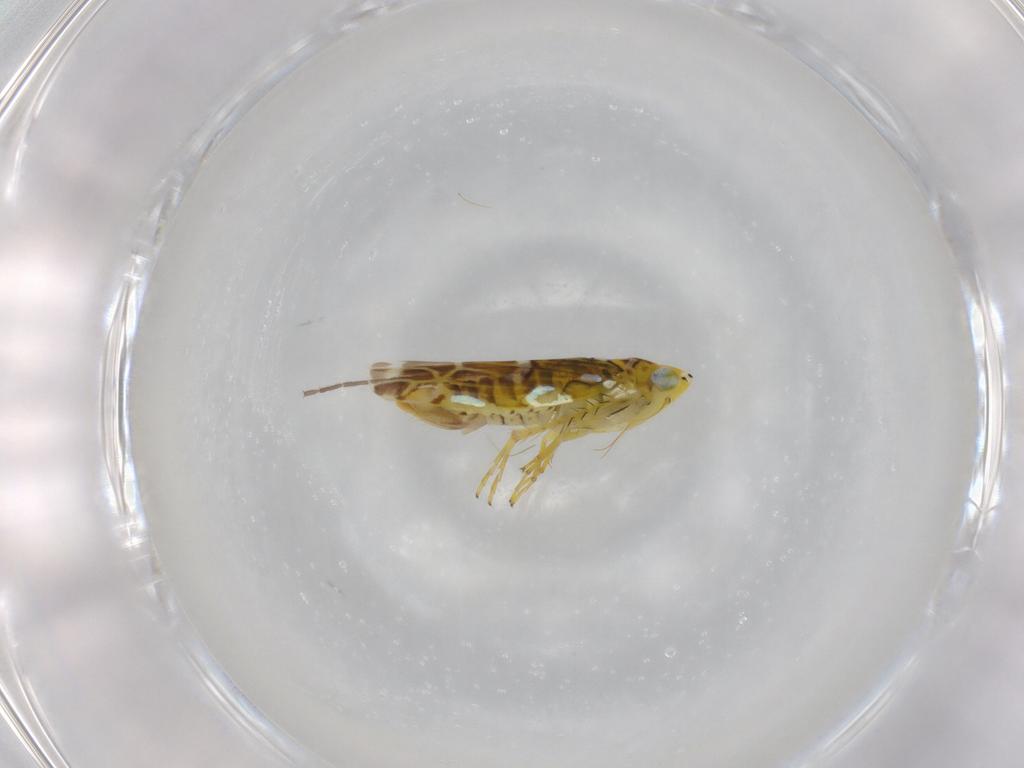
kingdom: Animalia
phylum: Arthropoda
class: Insecta
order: Hemiptera
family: Cicadellidae
